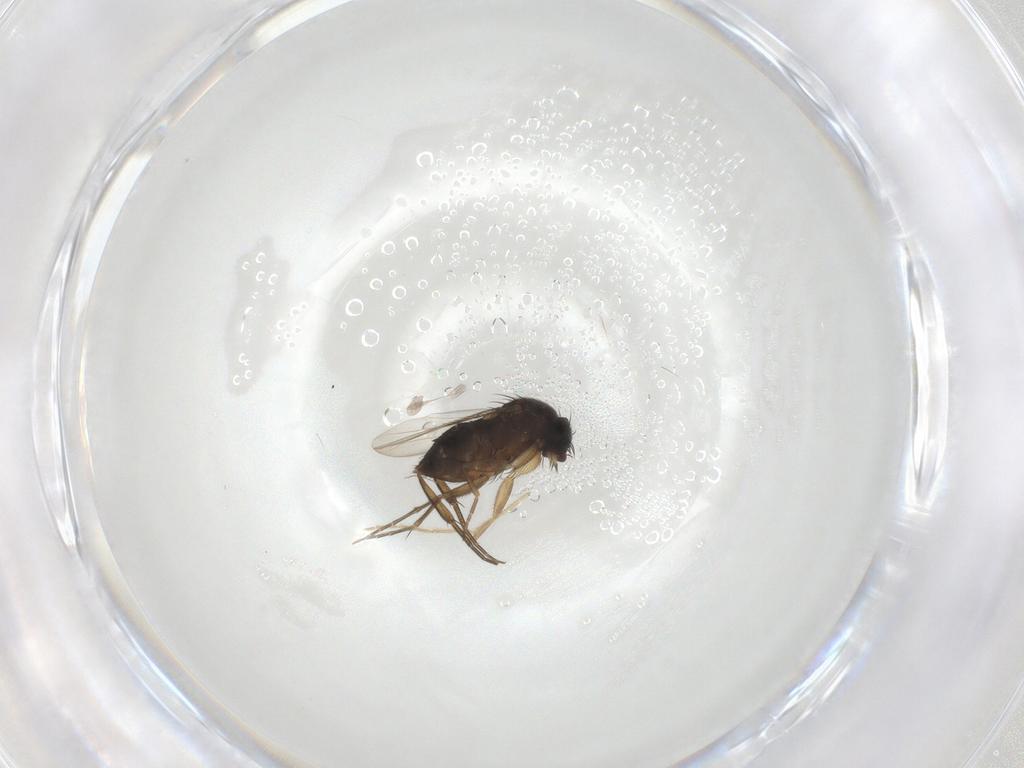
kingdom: Animalia
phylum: Arthropoda
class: Insecta
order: Diptera
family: Phoridae
